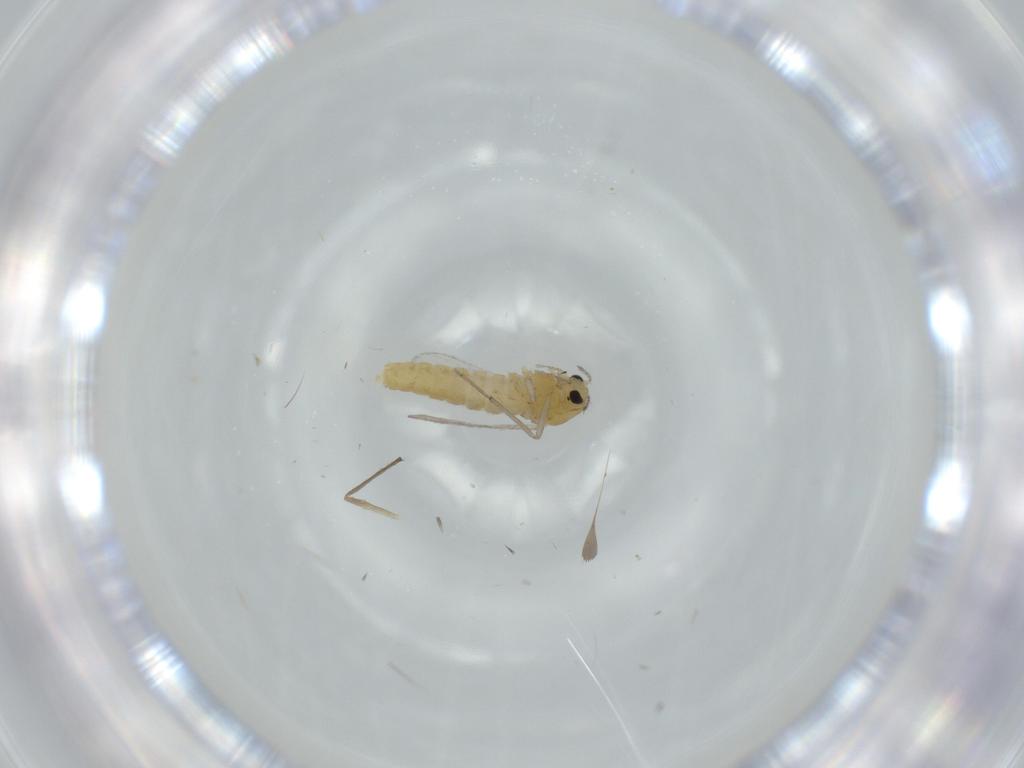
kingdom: Animalia
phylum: Arthropoda
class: Insecta
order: Diptera
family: Chironomidae
